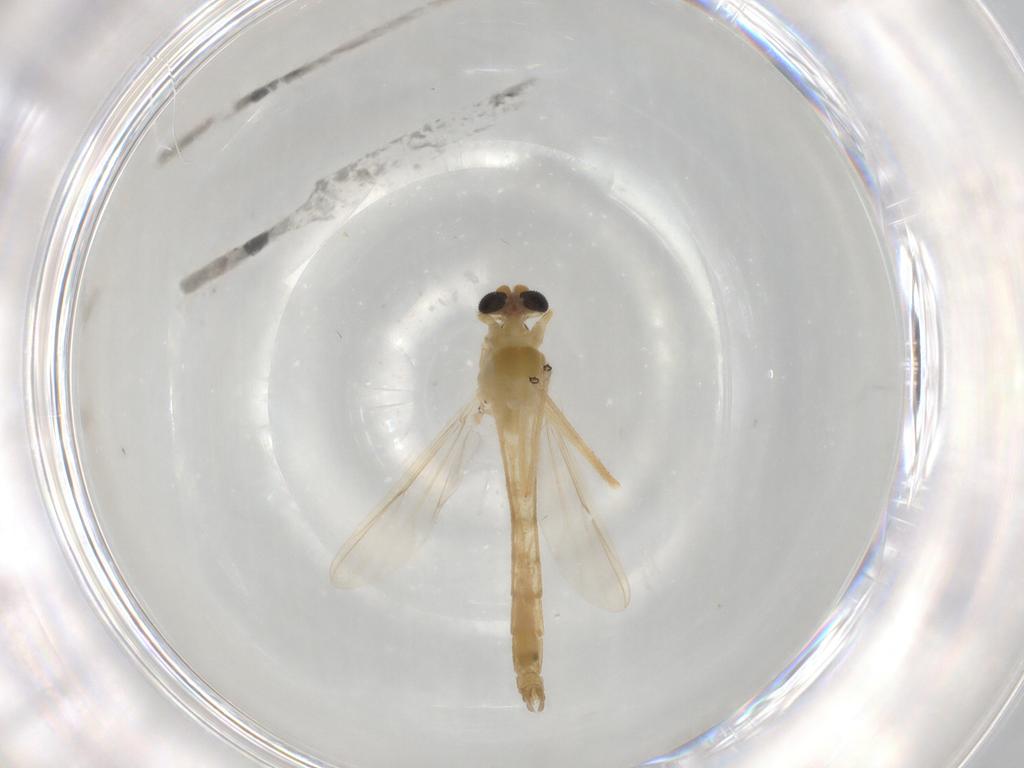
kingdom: Animalia
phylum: Arthropoda
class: Insecta
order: Diptera
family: Chironomidae
